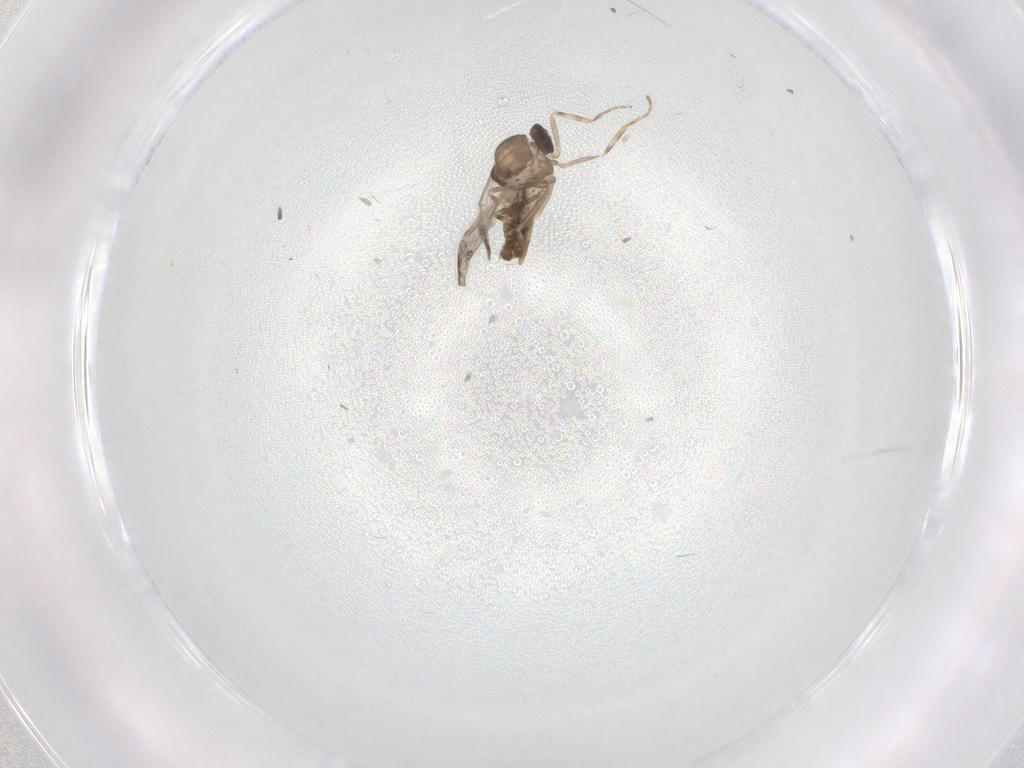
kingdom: Animalia
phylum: Arthropoda
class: Insecta
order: Diptera
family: Ceratopogonidae
